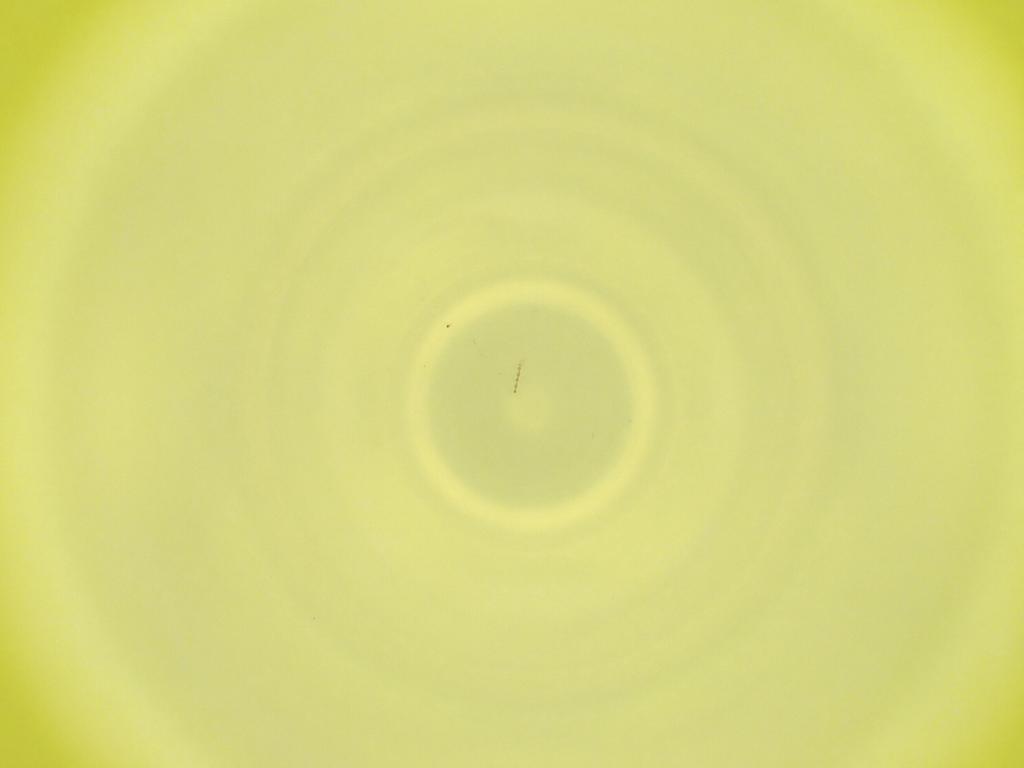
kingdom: Animalia
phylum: Arthropoda
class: Insecta
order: Diptera
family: Cecidomyiidae
